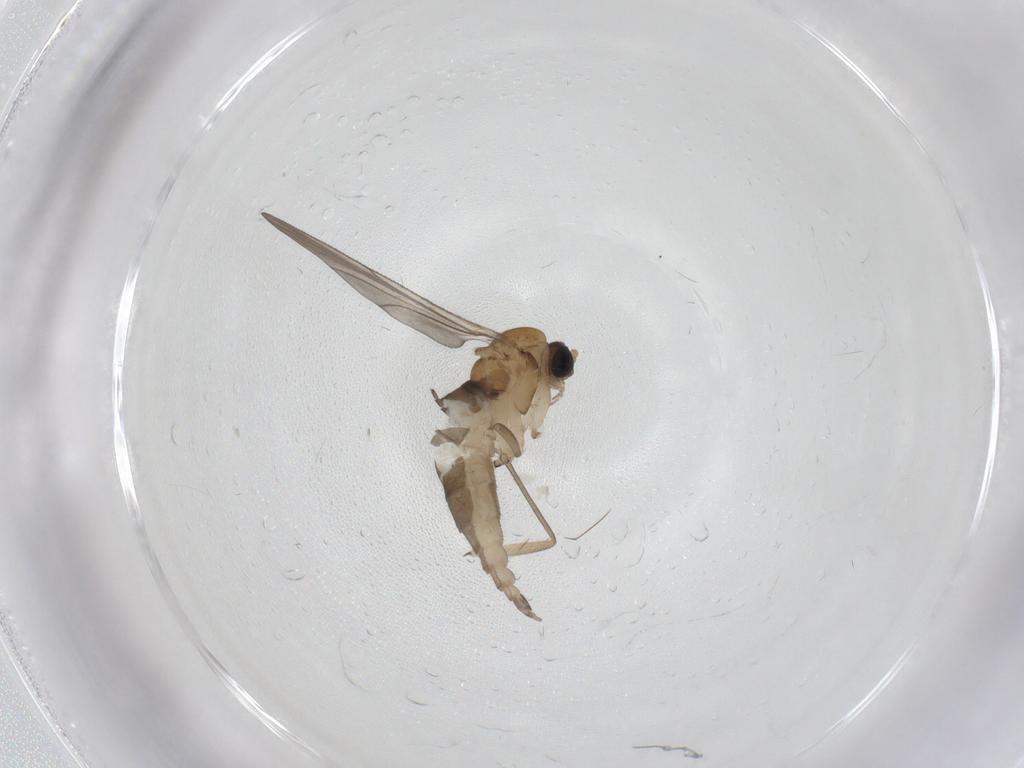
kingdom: Animalia
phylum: Arthropoda
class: Insecta
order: Diptera
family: Sciaridae
